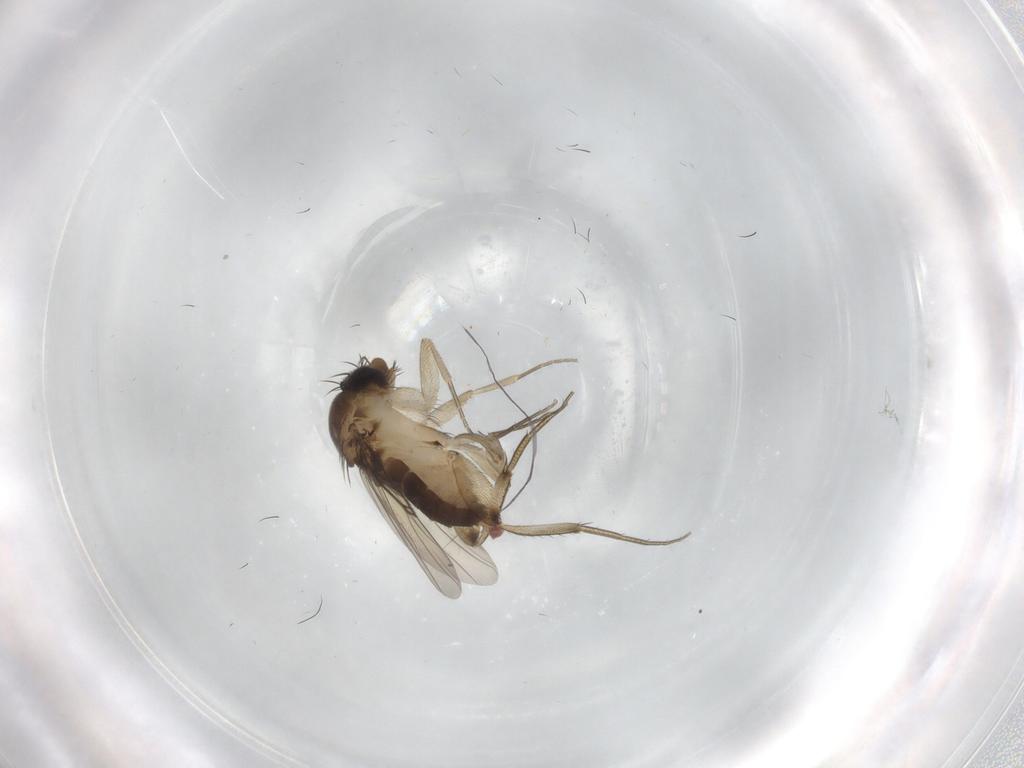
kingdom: Animalia
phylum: Arthropoda
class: Insecta
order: Diptera
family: Phoridae
